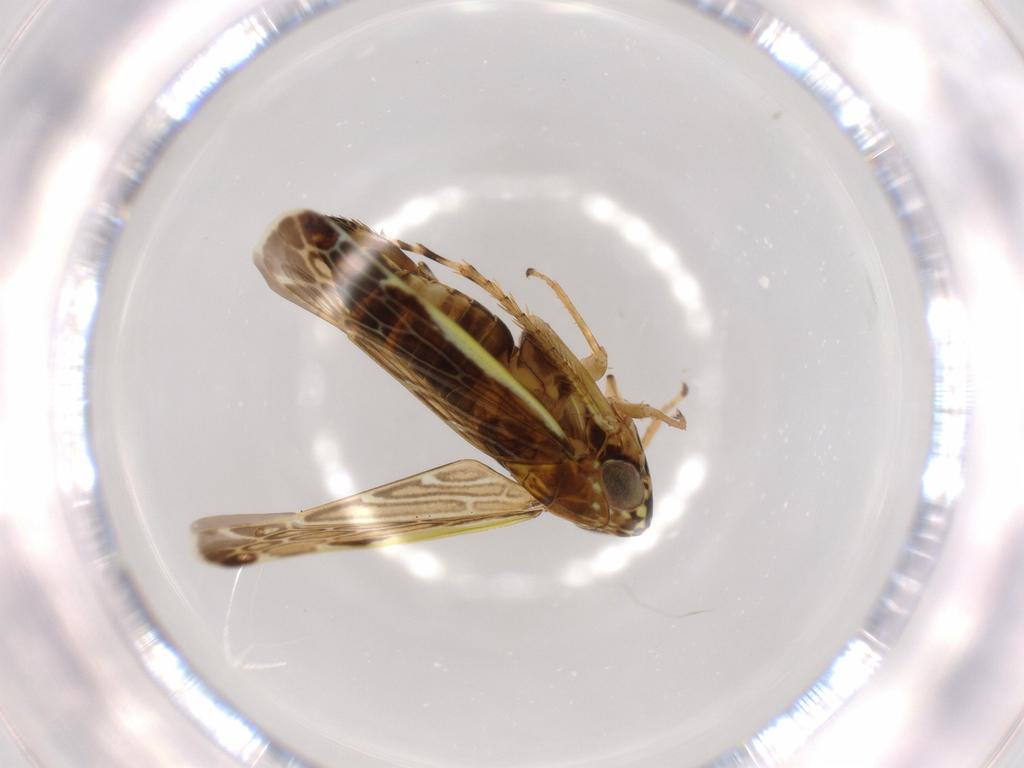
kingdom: Animalia
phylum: Arthropoda
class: Insecta
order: Hemiptera
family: Cicadellidae
